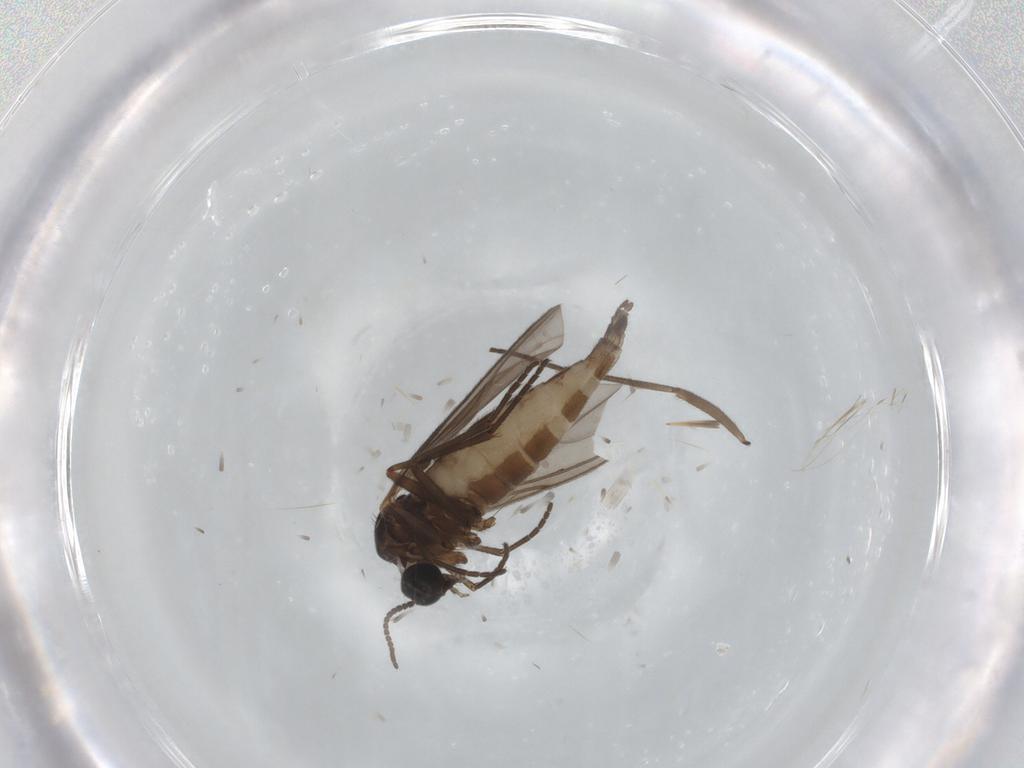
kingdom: Animalia
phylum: Arthropoda
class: Insecta
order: Diptera
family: Sciaridae
